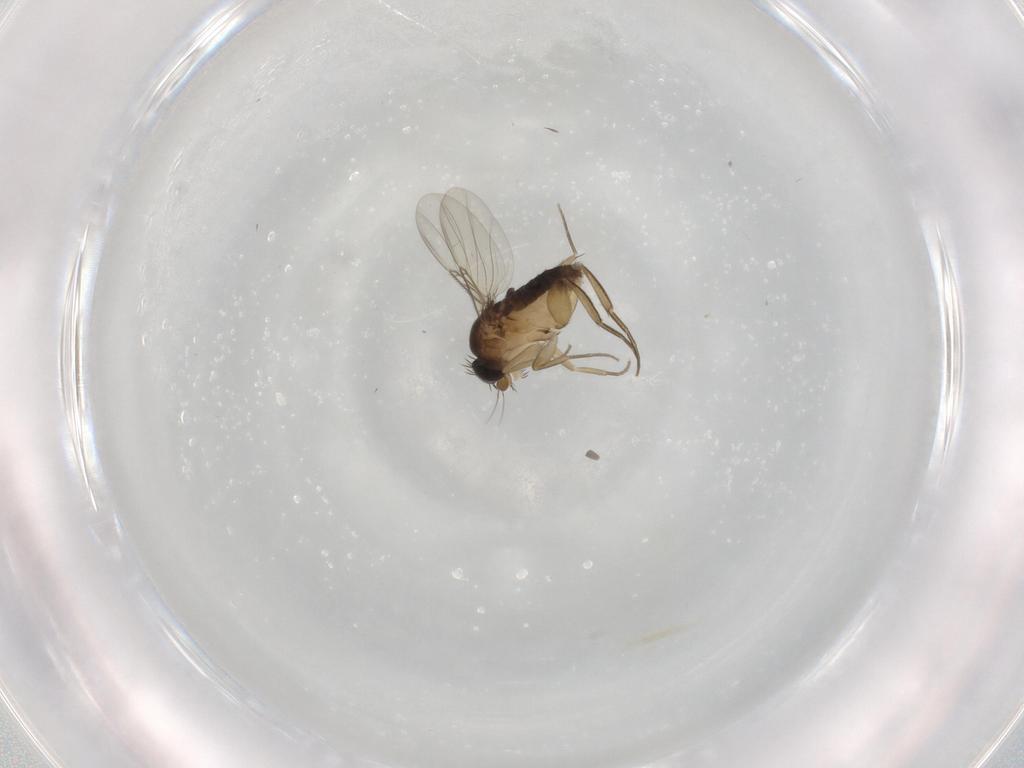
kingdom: Animalia
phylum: Arthropoda
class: Insecta
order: Diptera
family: Phoridae
